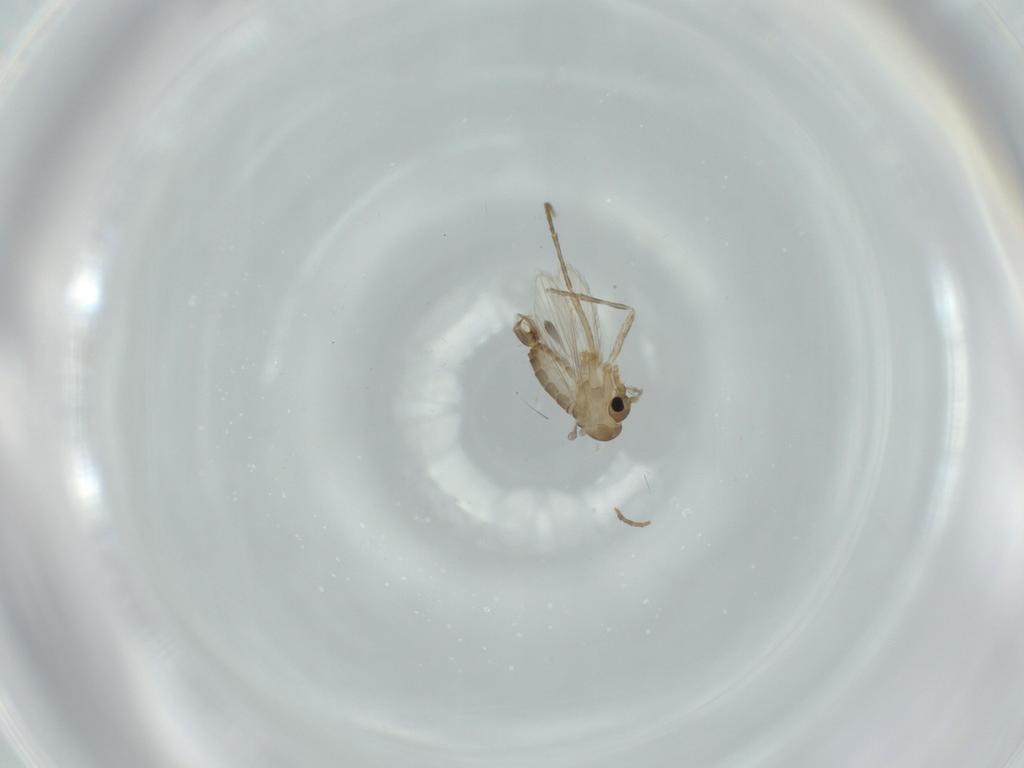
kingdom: Animalia
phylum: Arthropoda
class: Insecta
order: Diptera
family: Psychodidae
